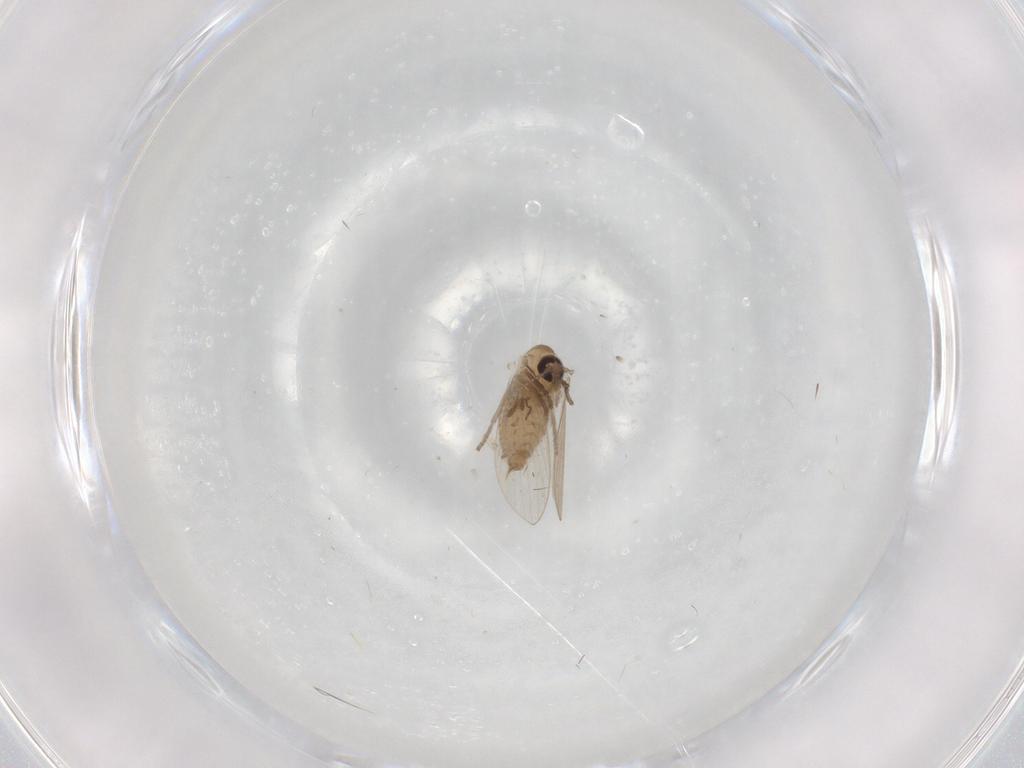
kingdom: Animalia
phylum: Arthropoda
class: Insecta
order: Diptera
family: Psychodidae
